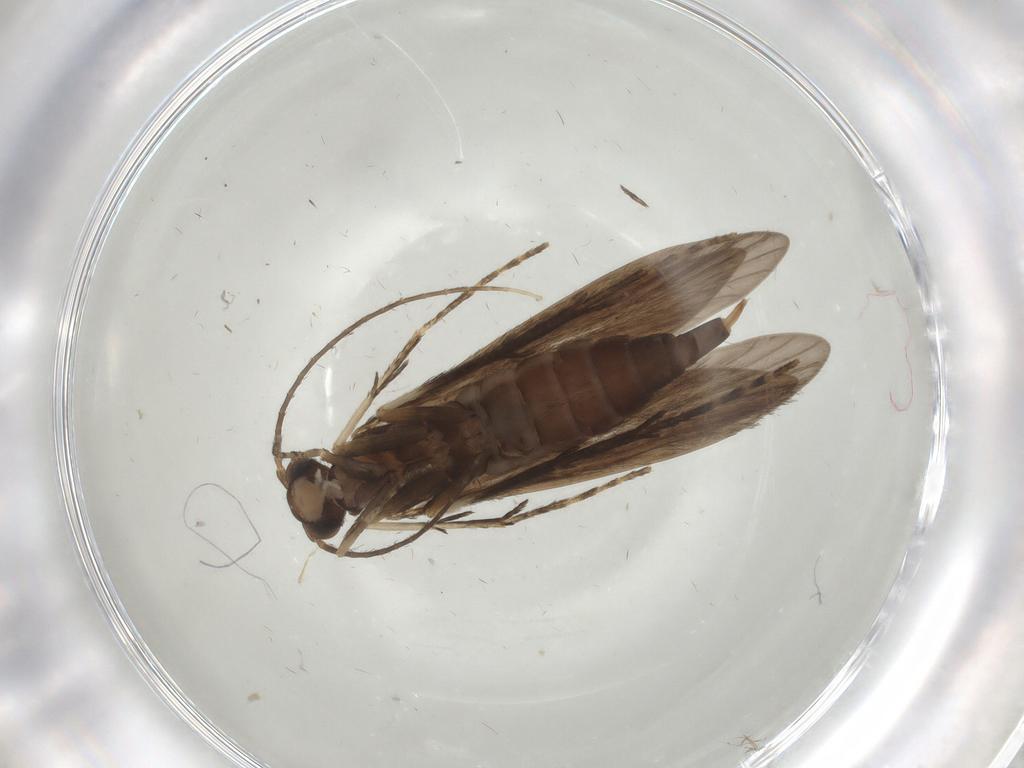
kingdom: Animalia
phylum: Arthropoda
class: Insecta
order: Trichoptera
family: Xiphocentronidae
